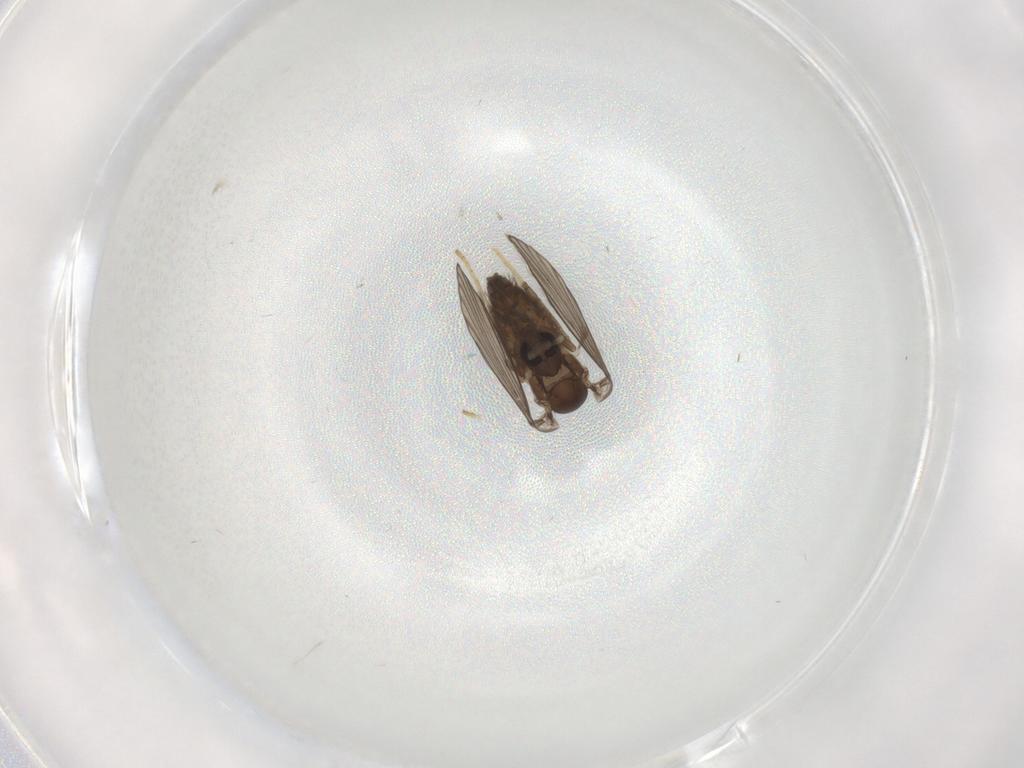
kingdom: Animalia
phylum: Arthropoda
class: Insecta
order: Diptera
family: Psychodidae
